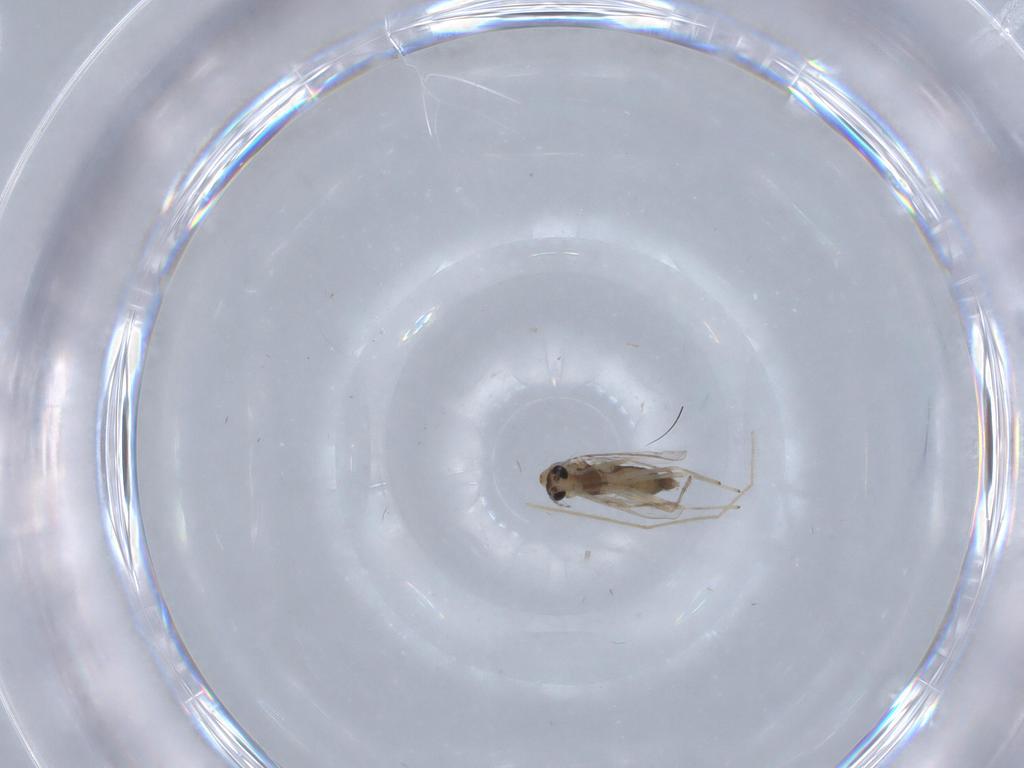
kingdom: Animalia
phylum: Arthropoda
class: Insecta
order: Diptera
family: Chironomidae
